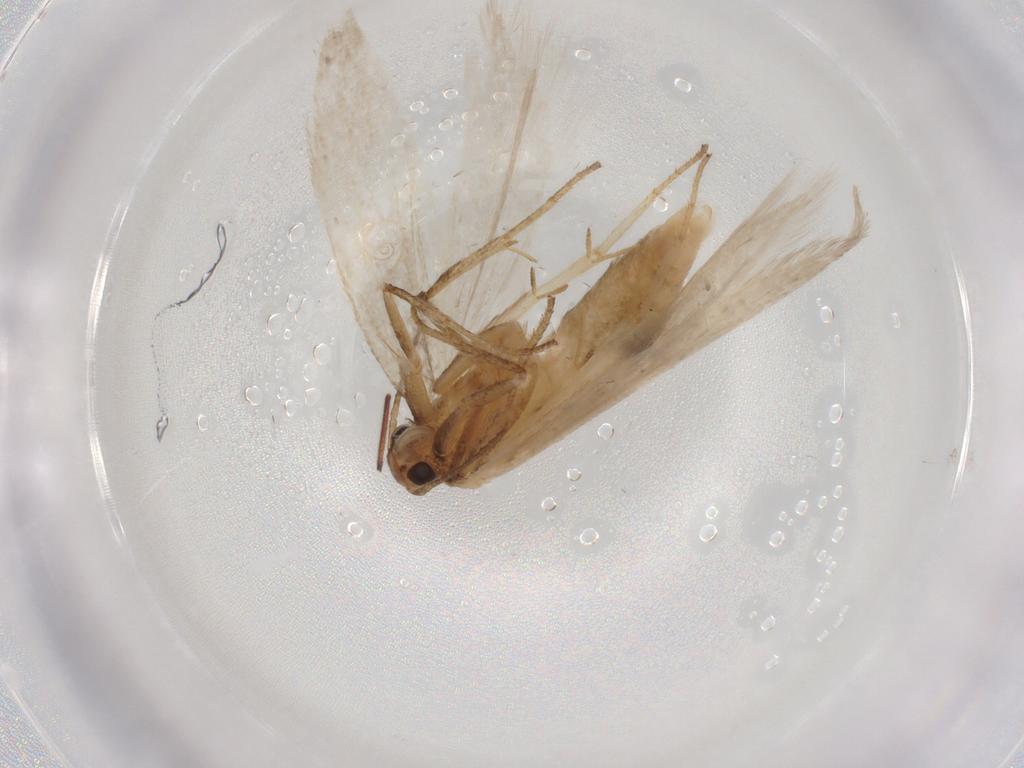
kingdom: Animalia
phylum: Arthropoda
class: Insecta
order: Lepidoptera
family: Gelechiidae
